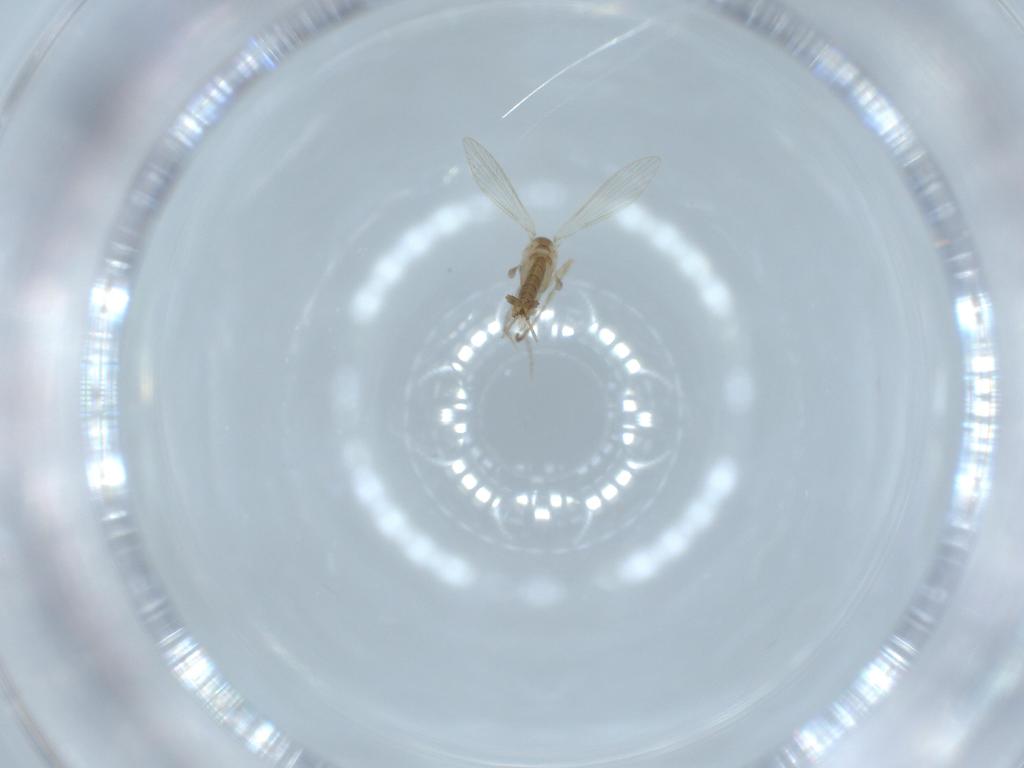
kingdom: Animalia
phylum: Arthropoda
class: Insecta
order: Diptera
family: Psychodidae
